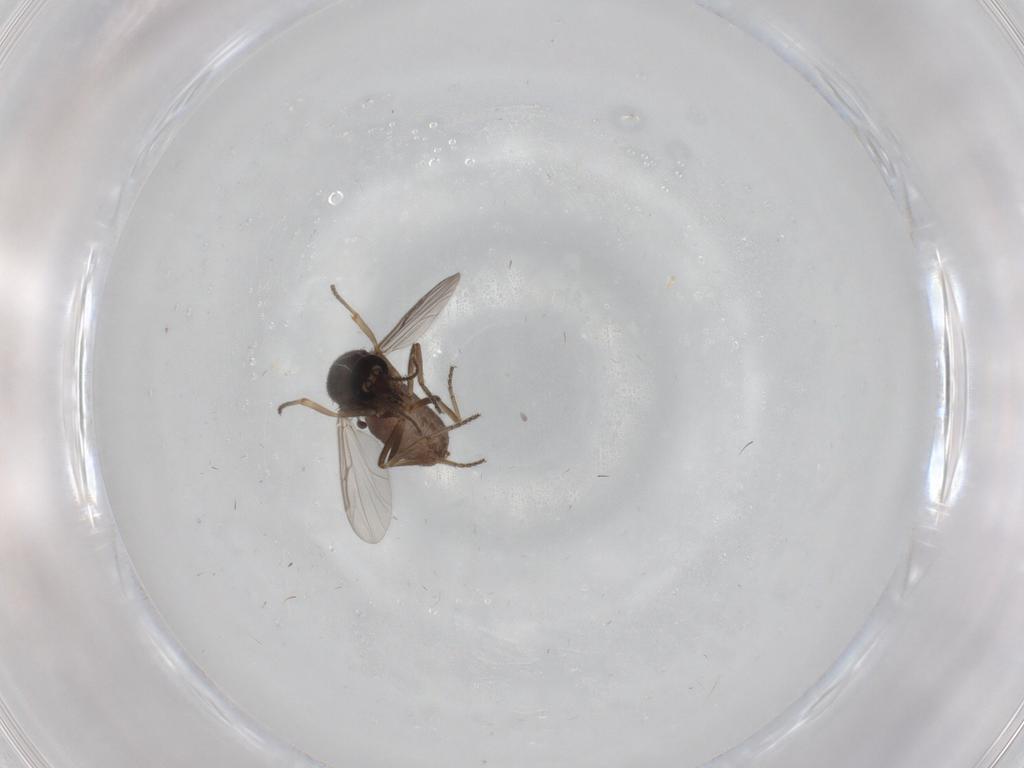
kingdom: Animalia
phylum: Arthropoda
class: Insecta
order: Diptera
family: Ceratopogonidae
